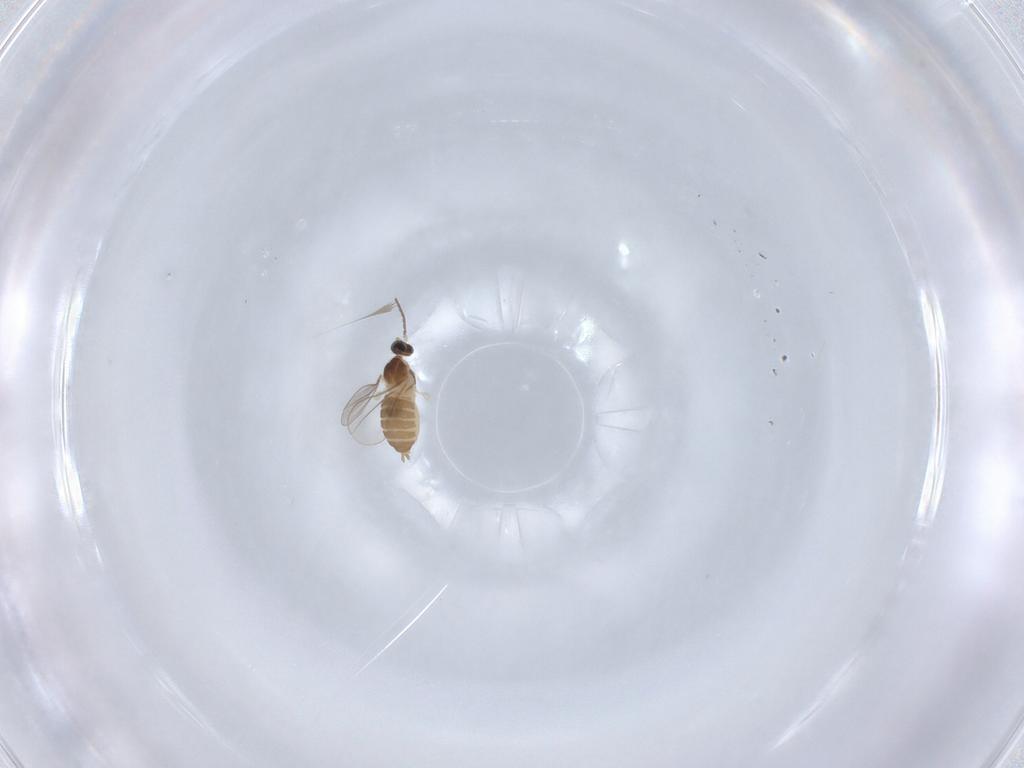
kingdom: Animalia
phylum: Arthropoda
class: Insecta
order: Diptera
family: Cecidomyiidae
